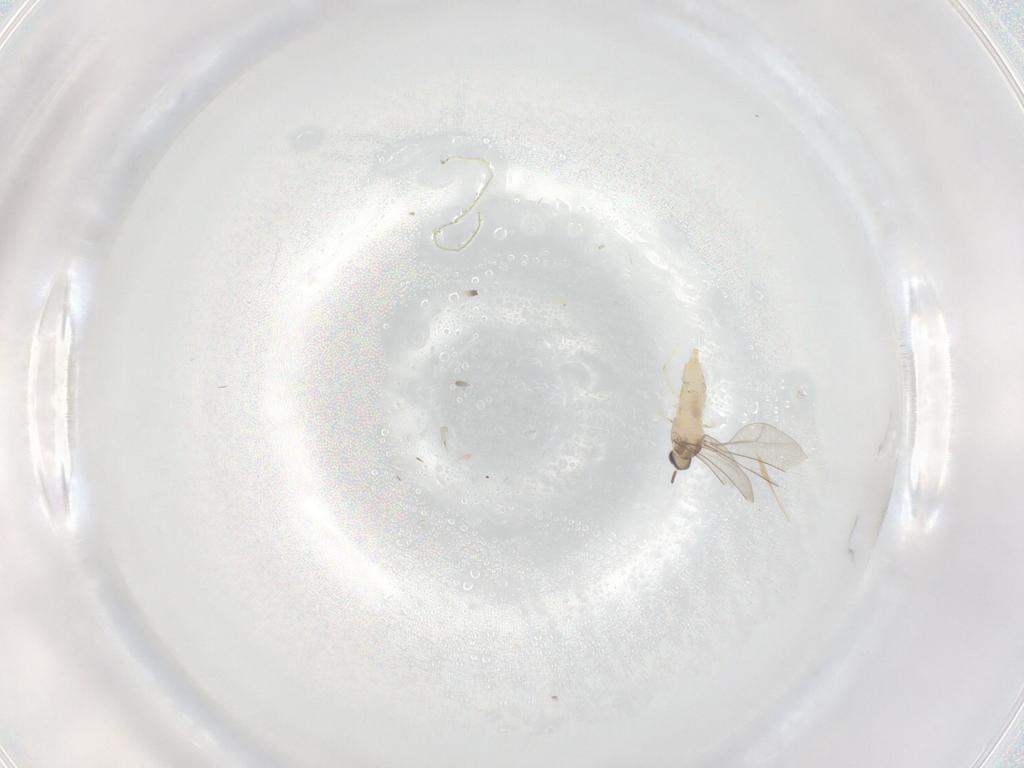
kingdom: Animalia
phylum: Arthropoda
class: Insecta
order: Diptera
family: Cecidomyiidae
